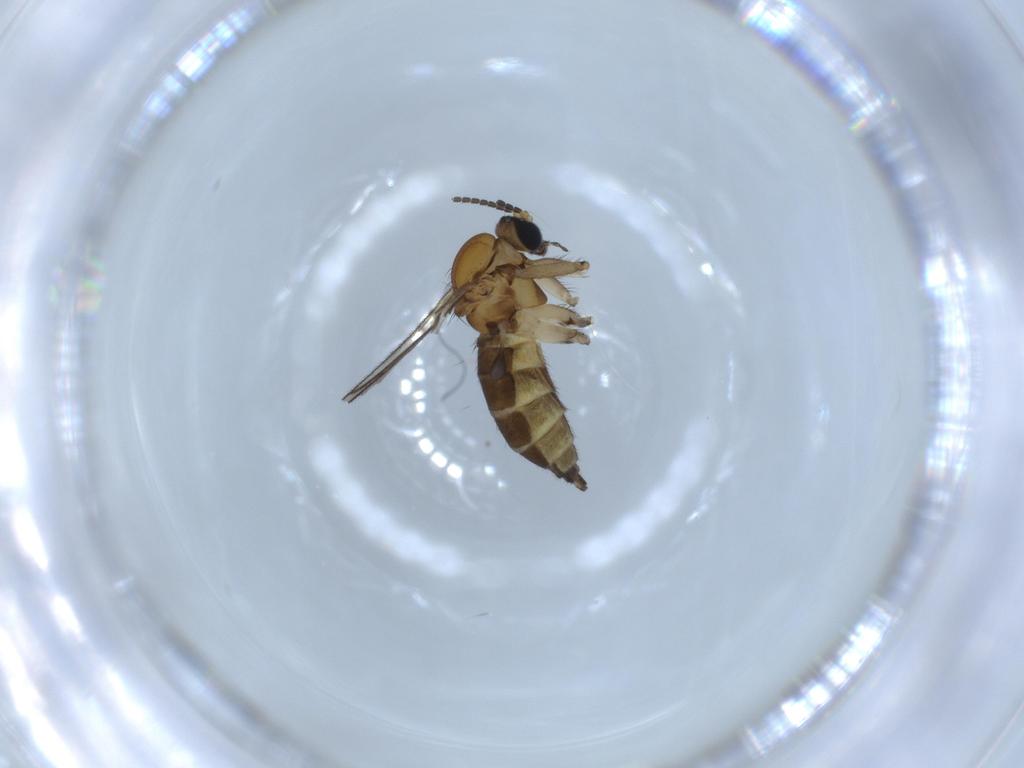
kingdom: Animalia
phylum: Arthropoda
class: Insecta
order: Diptera
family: Sciaridae
